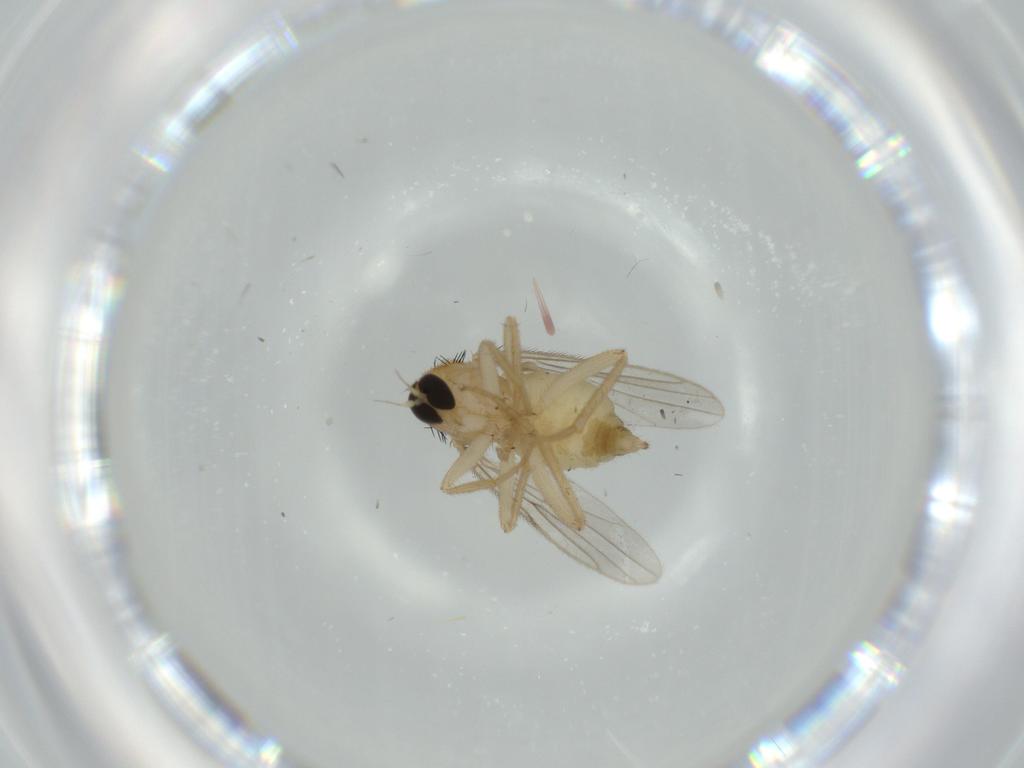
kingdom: Animalia
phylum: Arthropoda
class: Insecta
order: Diptera
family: Hybotidae
